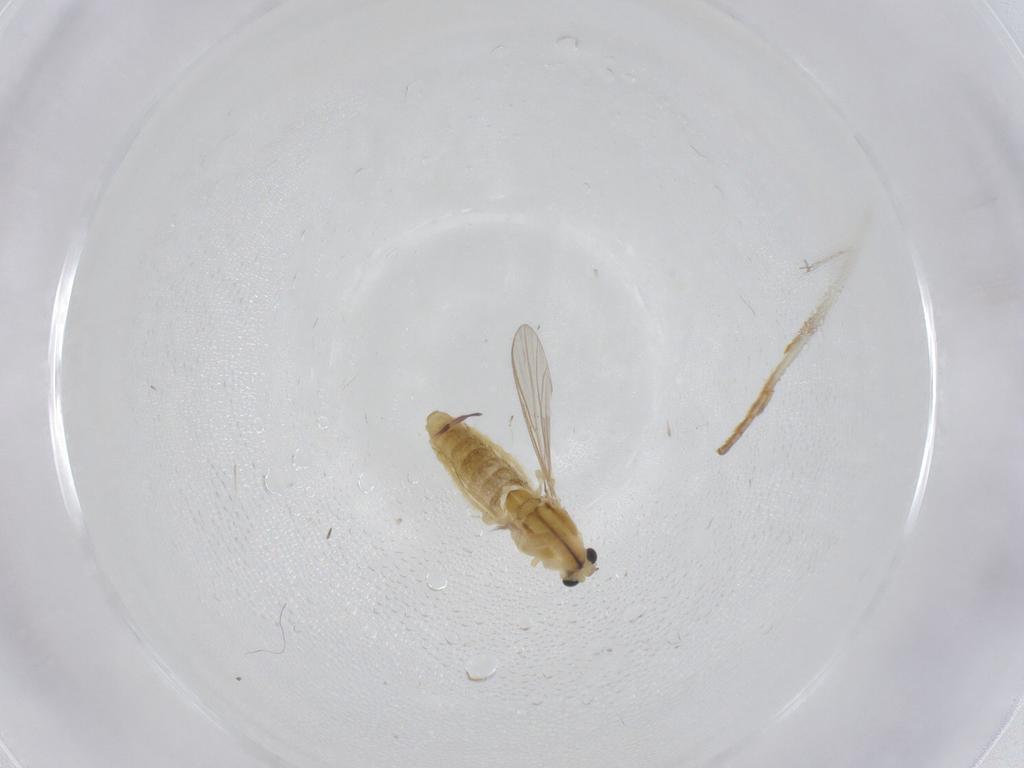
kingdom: Animalia
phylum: Arthropoda
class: Insecta
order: Diptera
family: Chironomidae
